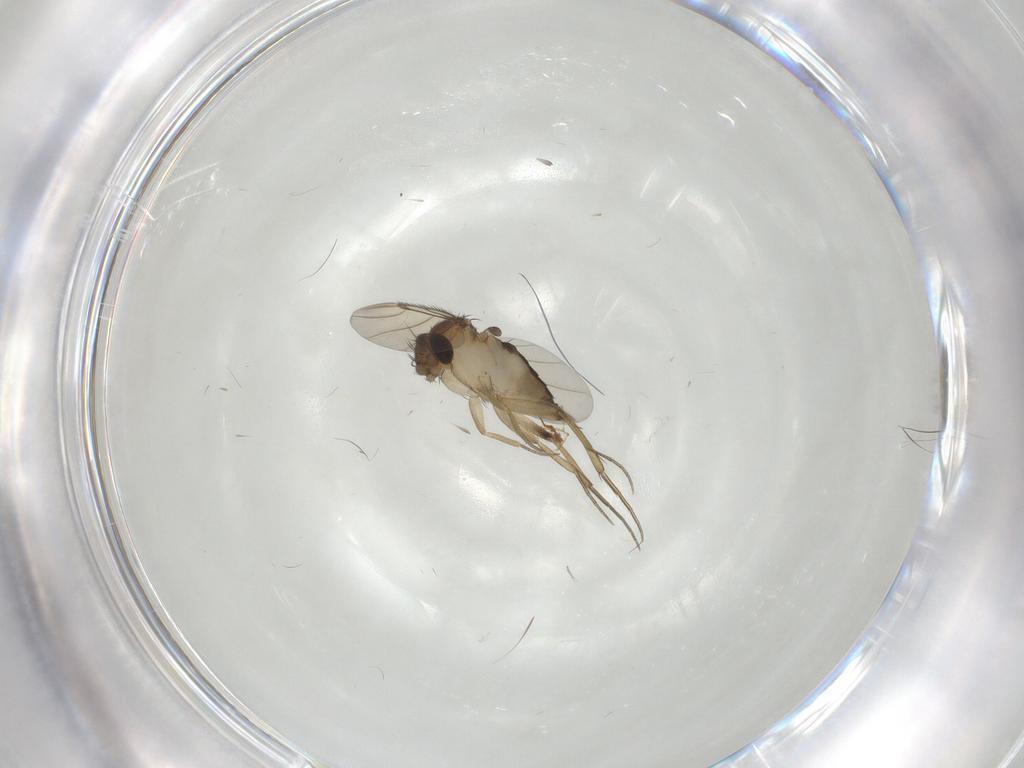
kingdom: Animalia
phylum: Arthropoda
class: Insecta
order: Diptera
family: Phoridae
